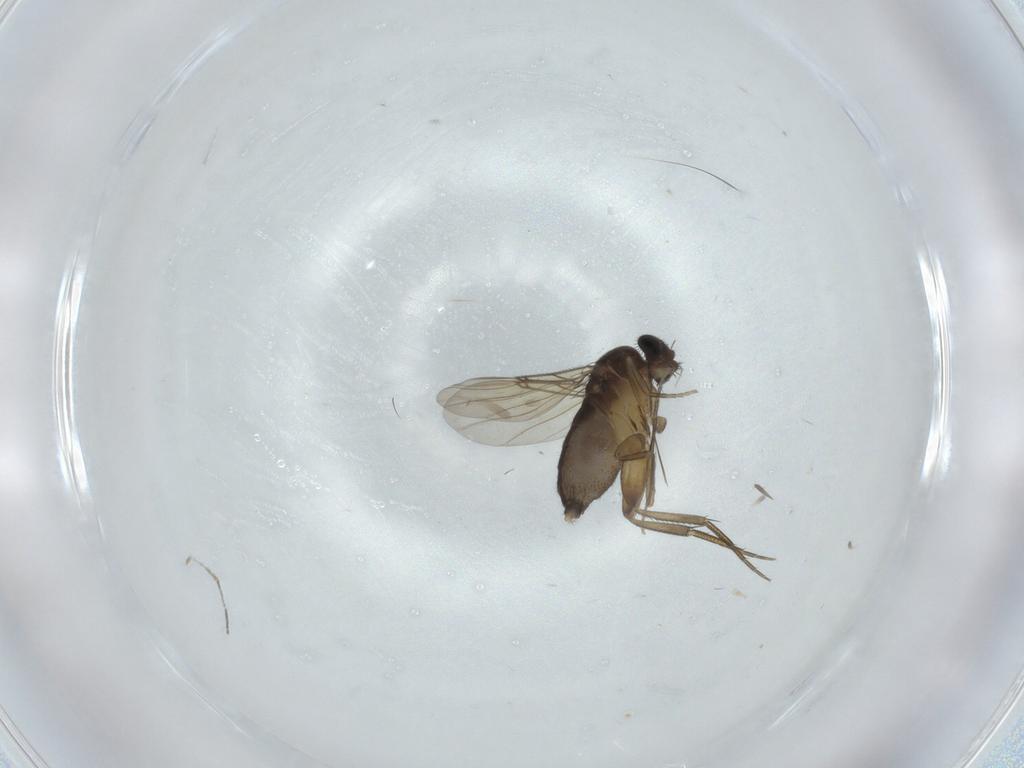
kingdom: Animalia
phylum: Arthropoda
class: Insecta
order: Diptera
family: Phoridae
